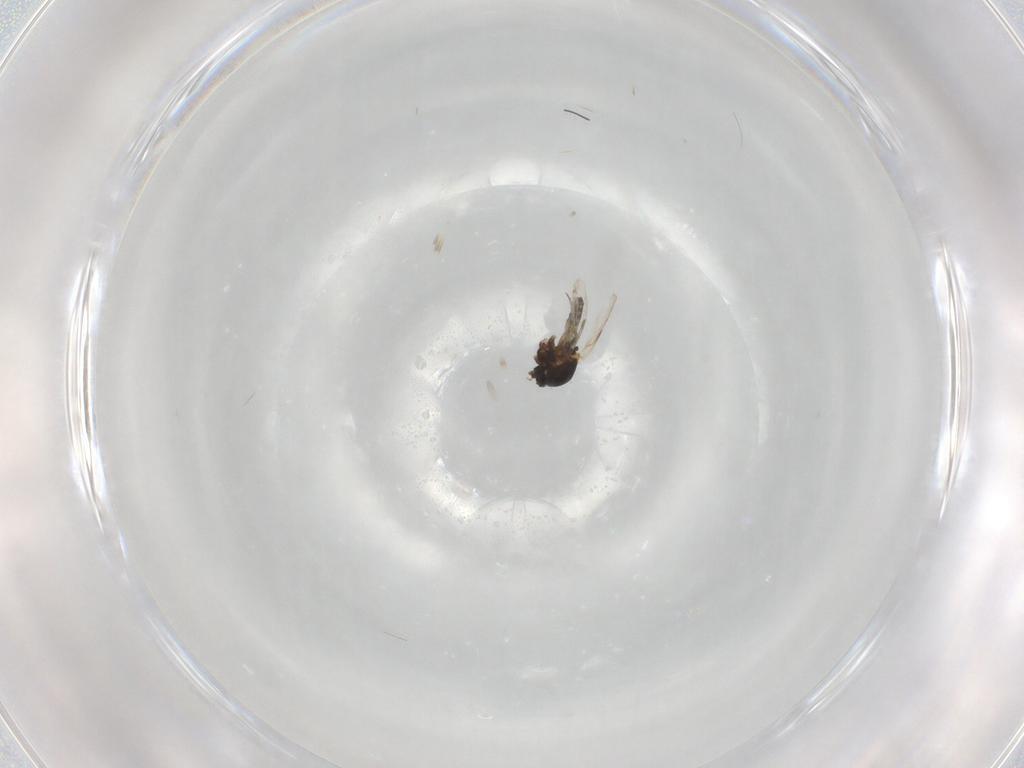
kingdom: Animalia
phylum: Arthropoda
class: Insecta
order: Diptera
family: Ceratopogonidae
